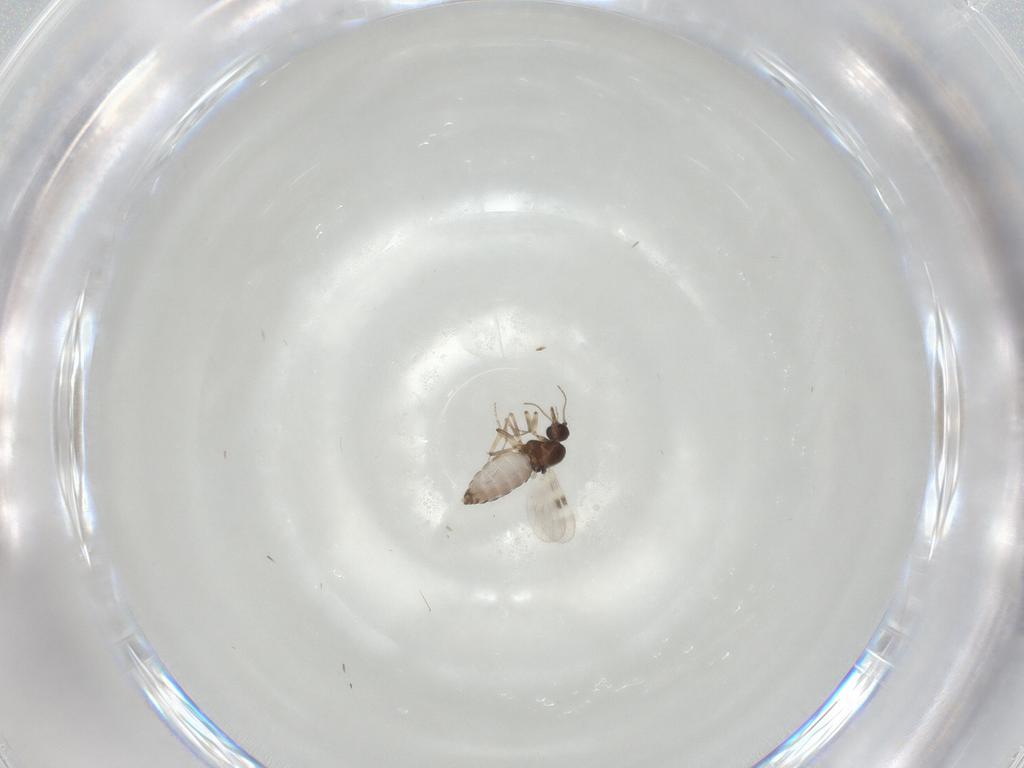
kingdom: Animalia
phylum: Arthropoda
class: Insecta
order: Diptera
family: Cecidomyiidae
